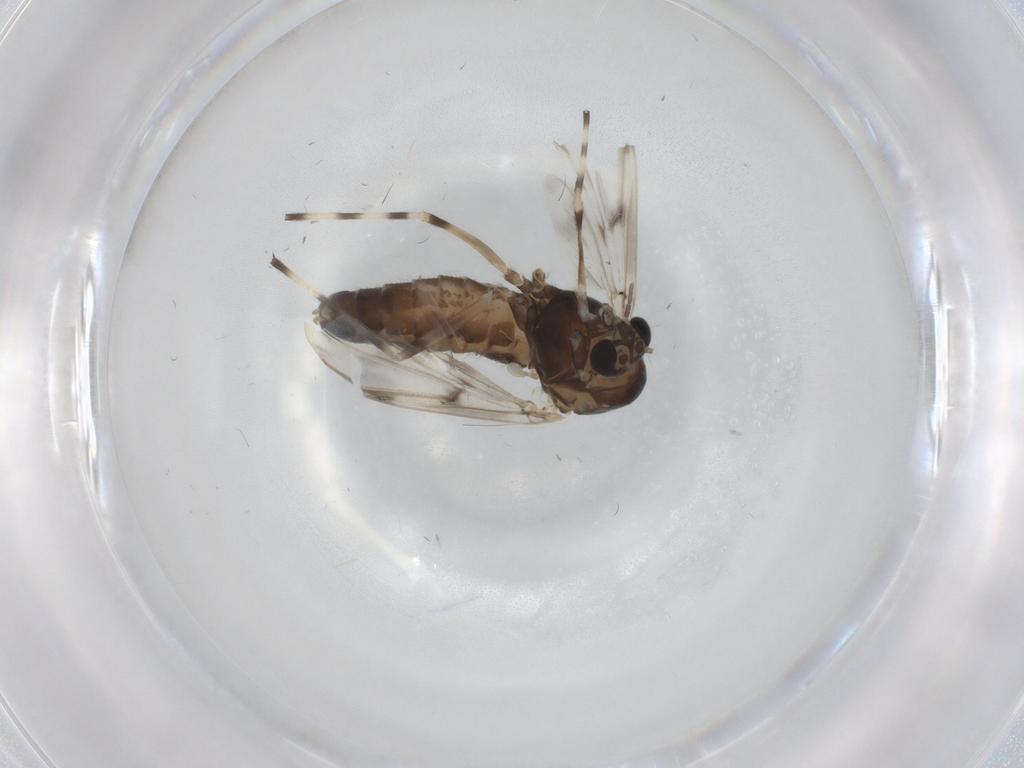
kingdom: Animalia
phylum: Arthropoda
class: Insecta
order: Diptera
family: Chironomidae
